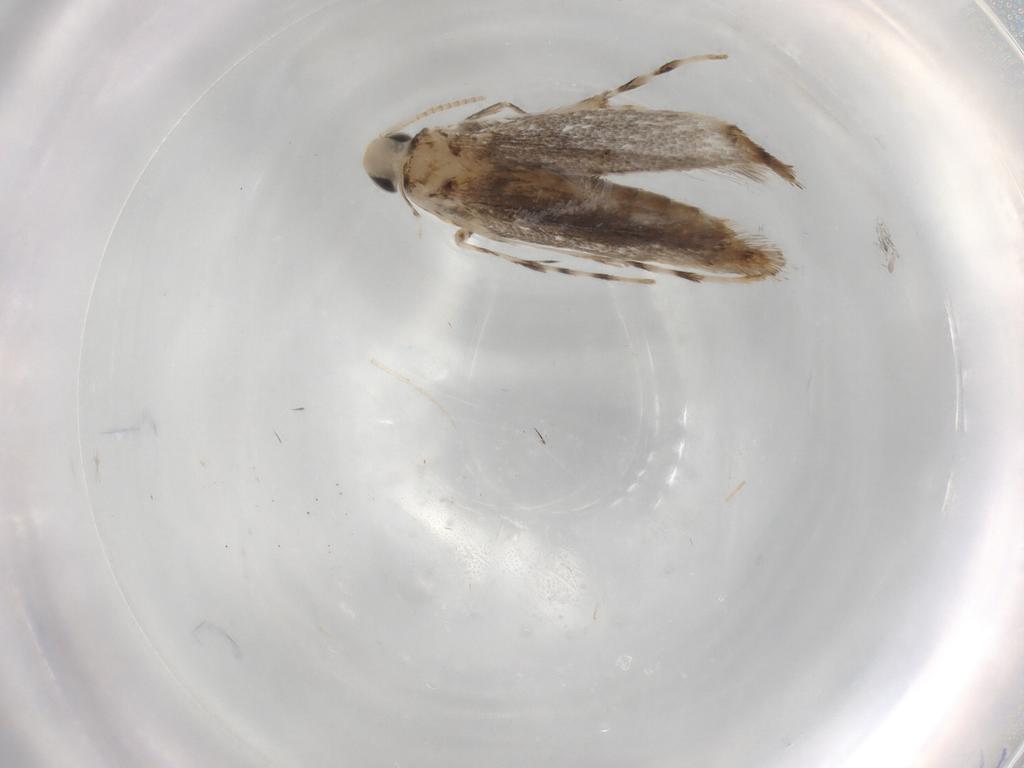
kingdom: Animalia
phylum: Arthropoda
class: Insecta
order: Lepidoptera
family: Gracillariidae
